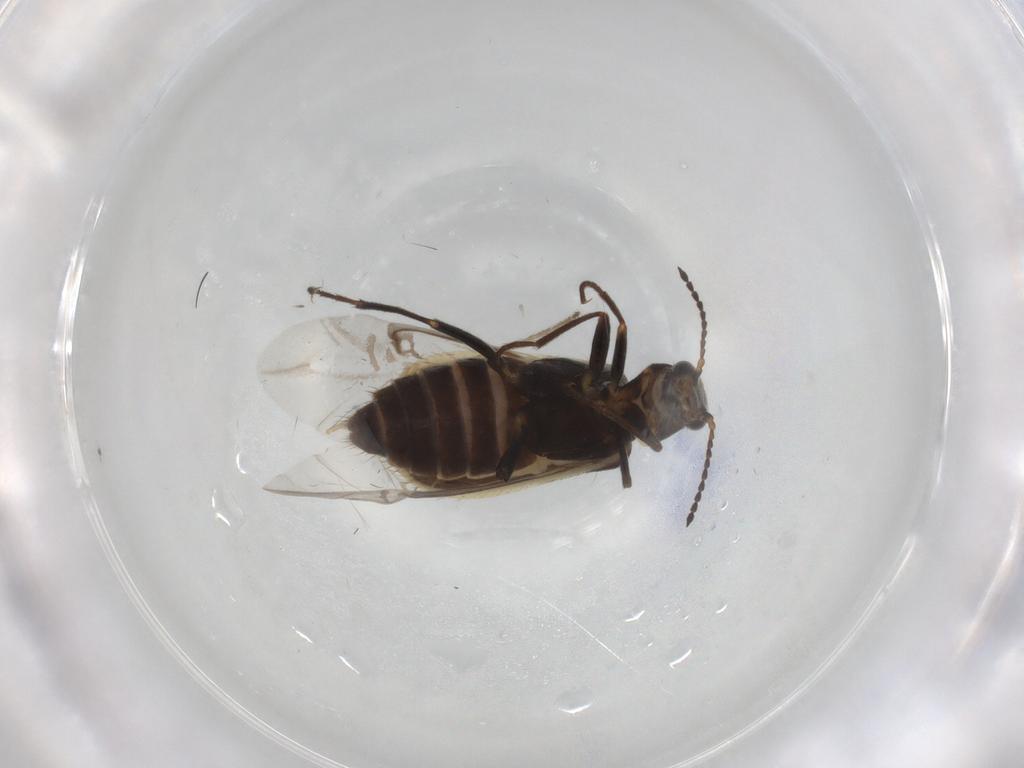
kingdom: Animalia
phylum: Arthropoda
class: Insecta
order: Coleoptera
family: Dasytidae
